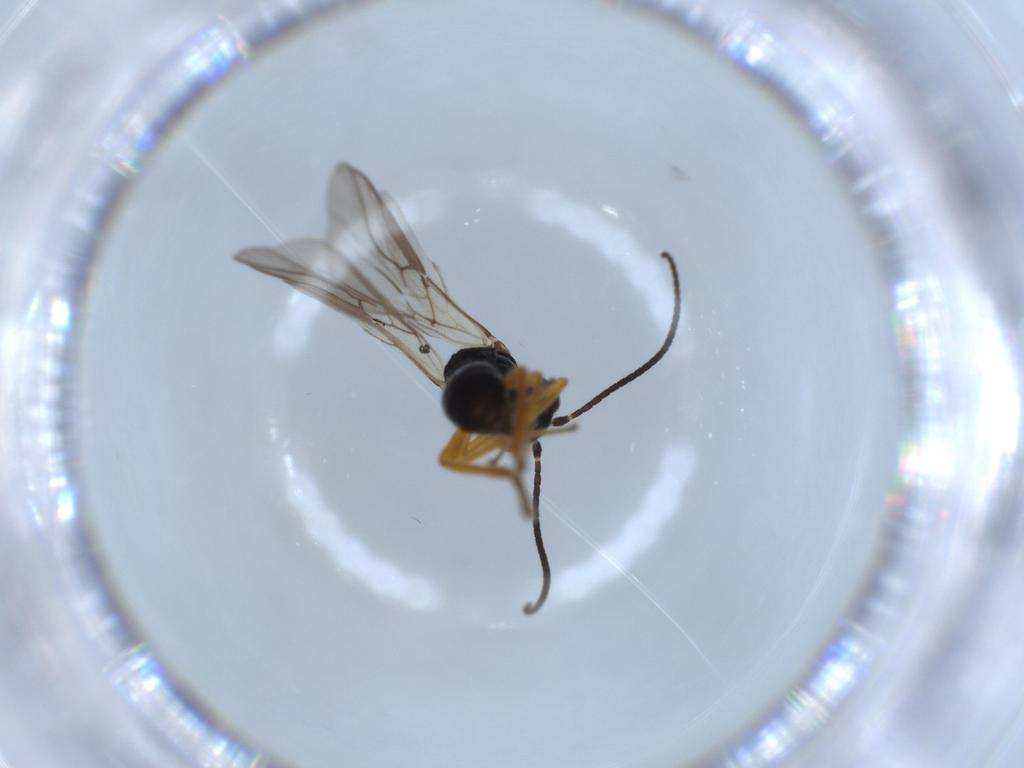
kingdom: Animalia
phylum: Arthropoda
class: Insecta
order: Hymenoptera
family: Braconidae
